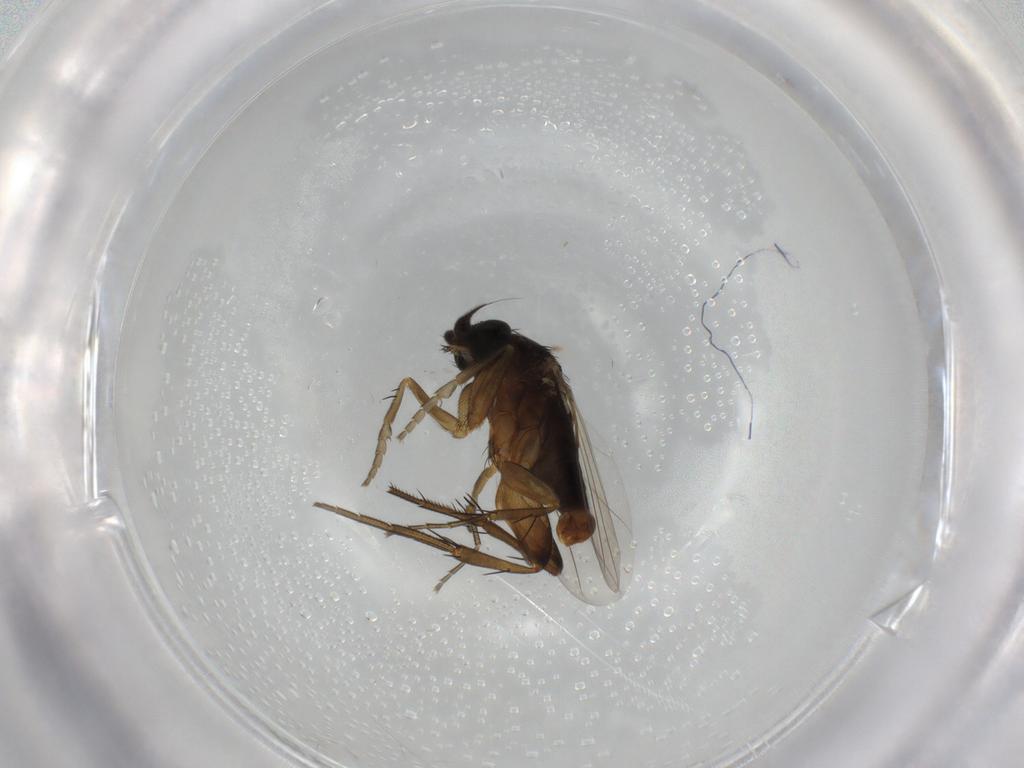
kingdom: Animalia
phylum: Arthropoda
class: Insecta
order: Diptera
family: Phoridae
